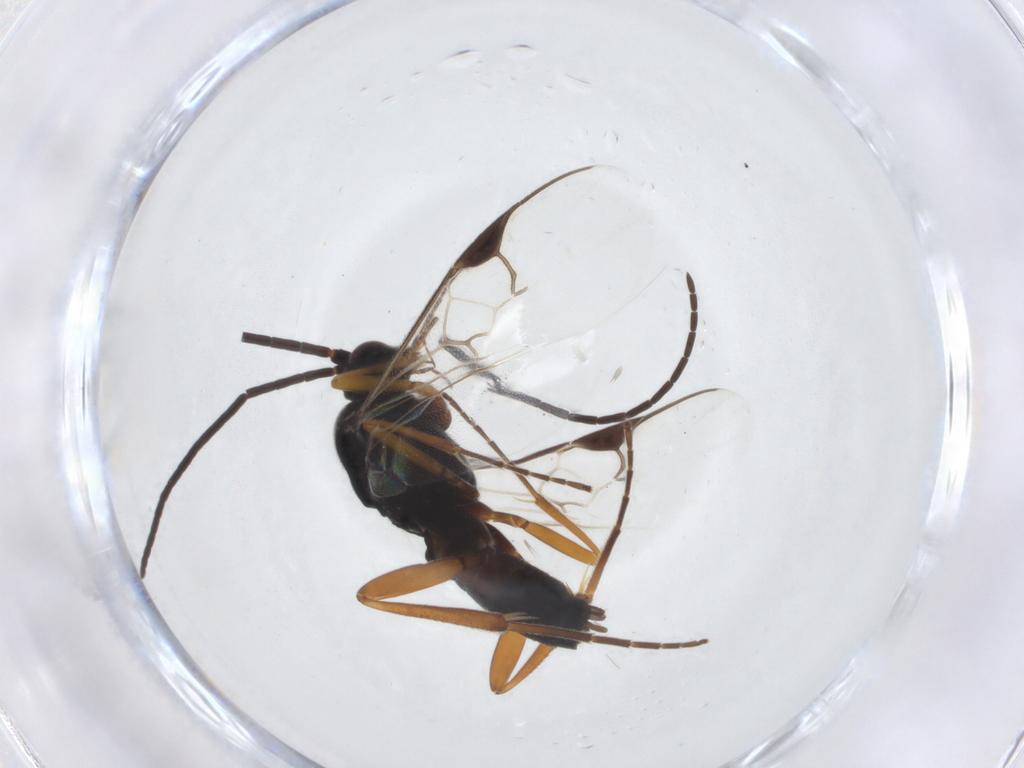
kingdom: Animalia
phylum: Arthropoda
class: Insecta
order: Hymenoptera
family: Braconidae
